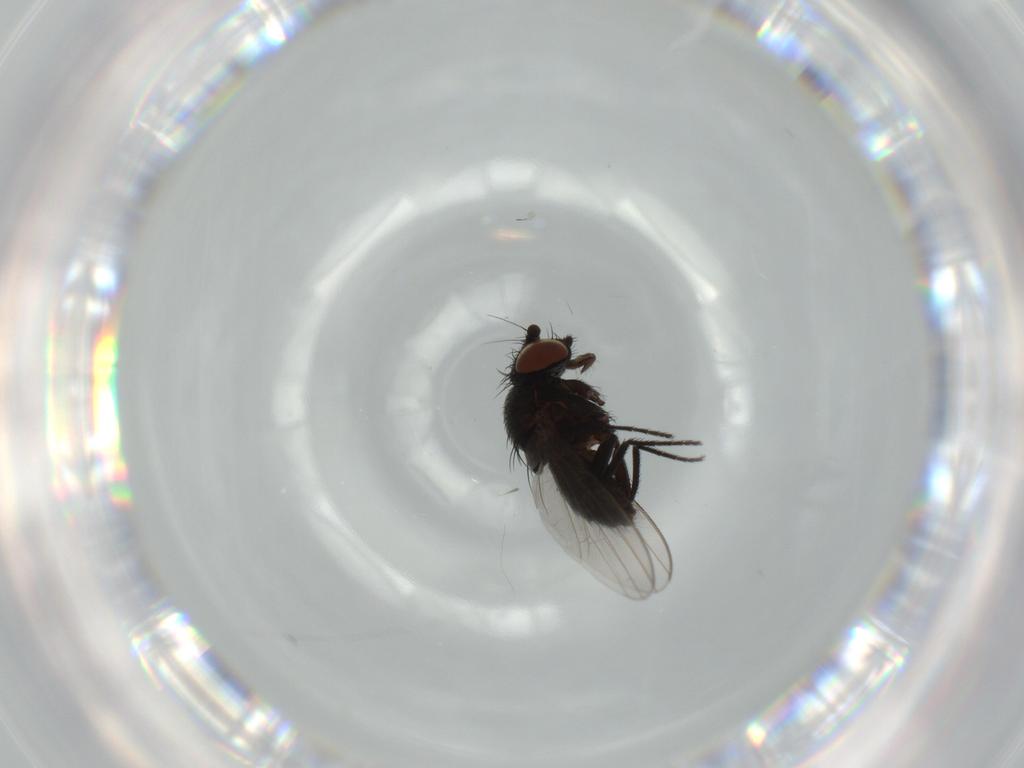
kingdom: Animalia
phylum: Arthropoda
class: Insecta
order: Diptera
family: Milichiidae
